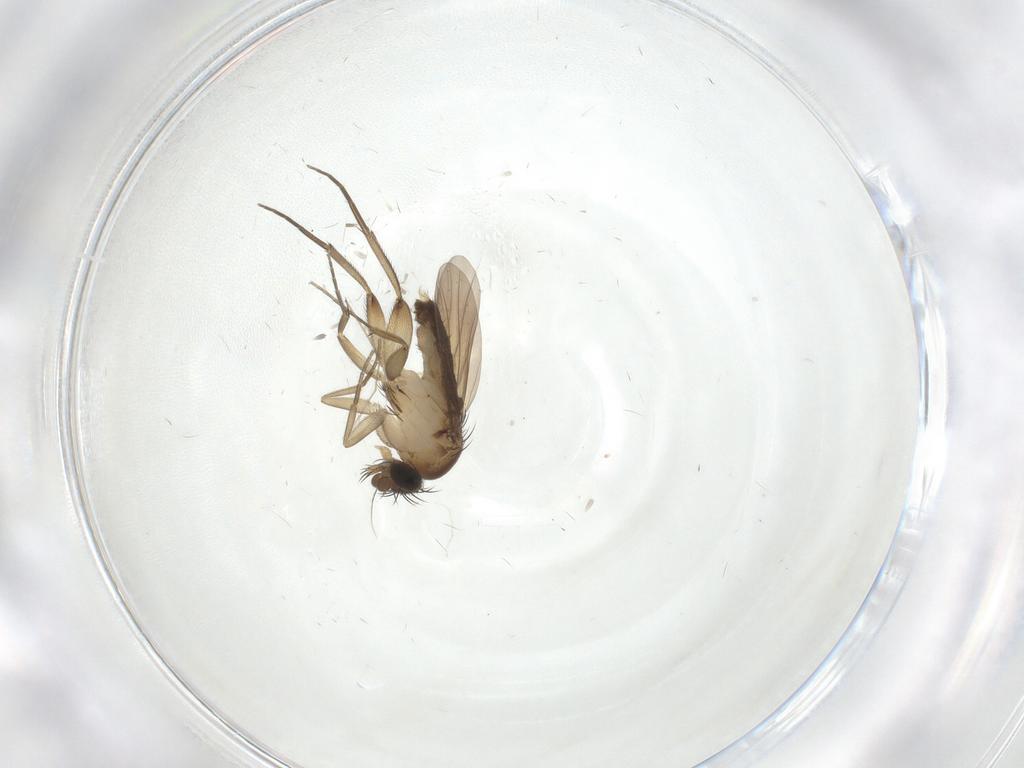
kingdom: Animalia
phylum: Arthropoda
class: Insecta
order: Diptera
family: Phoridae
